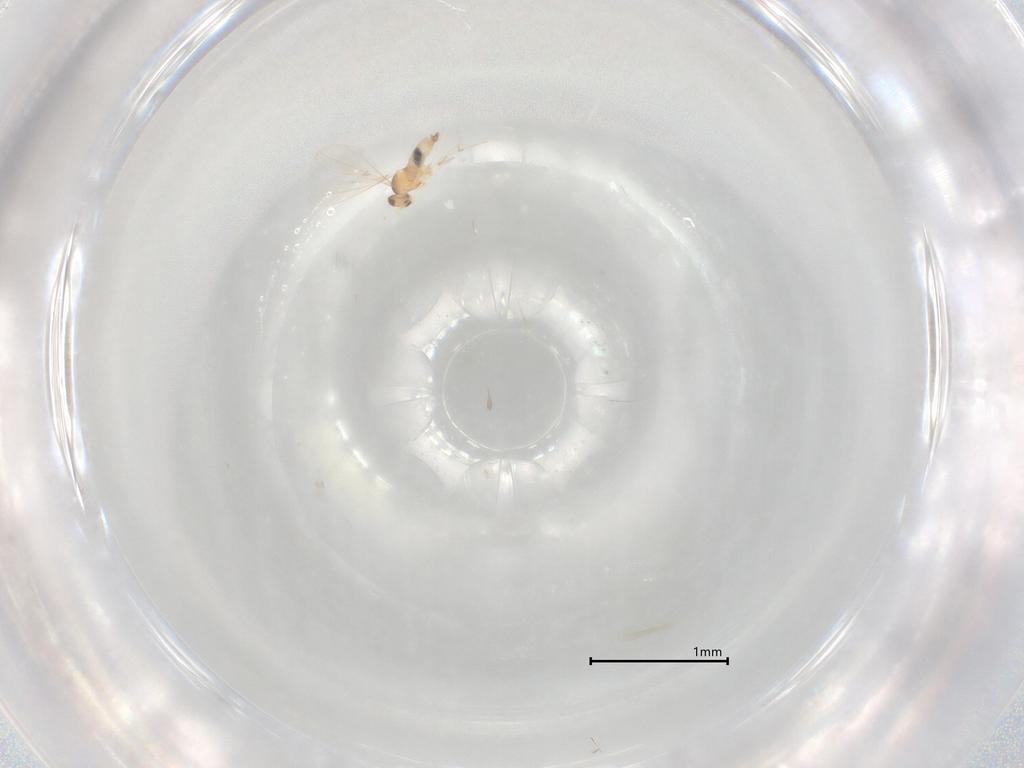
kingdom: Animalia
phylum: Arthropoda
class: Insecta
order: Diptera
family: Cecidomyiidae
